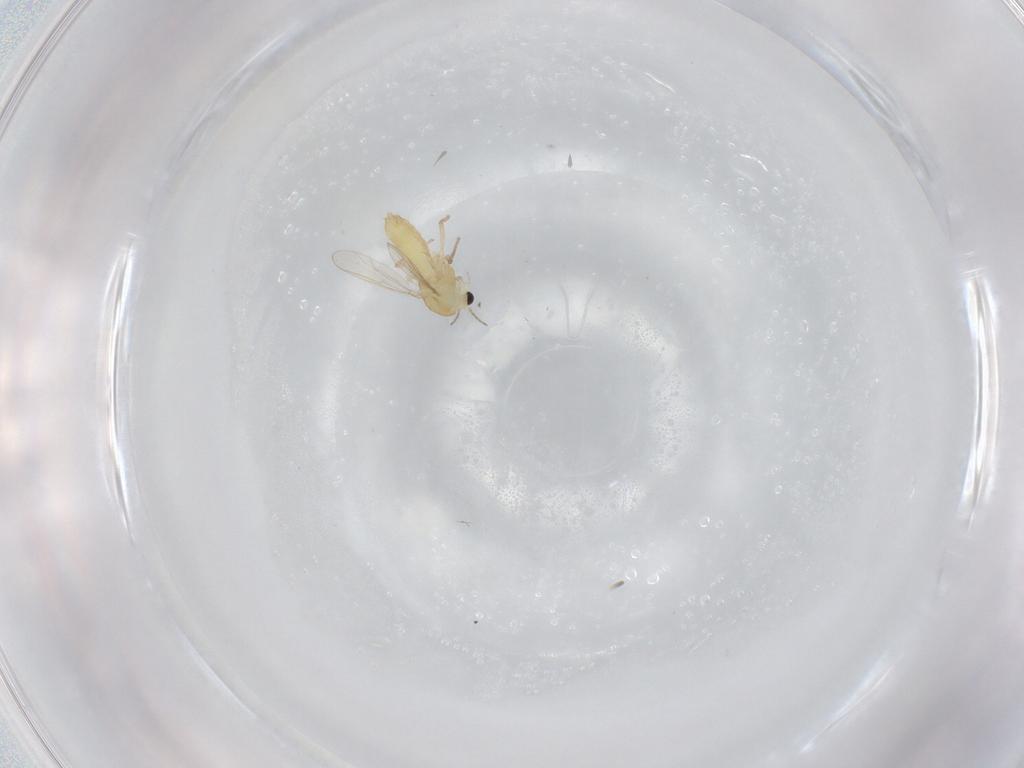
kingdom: Animalia
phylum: Arthropoda
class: Insecta
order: Diptera
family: Chironomidae
